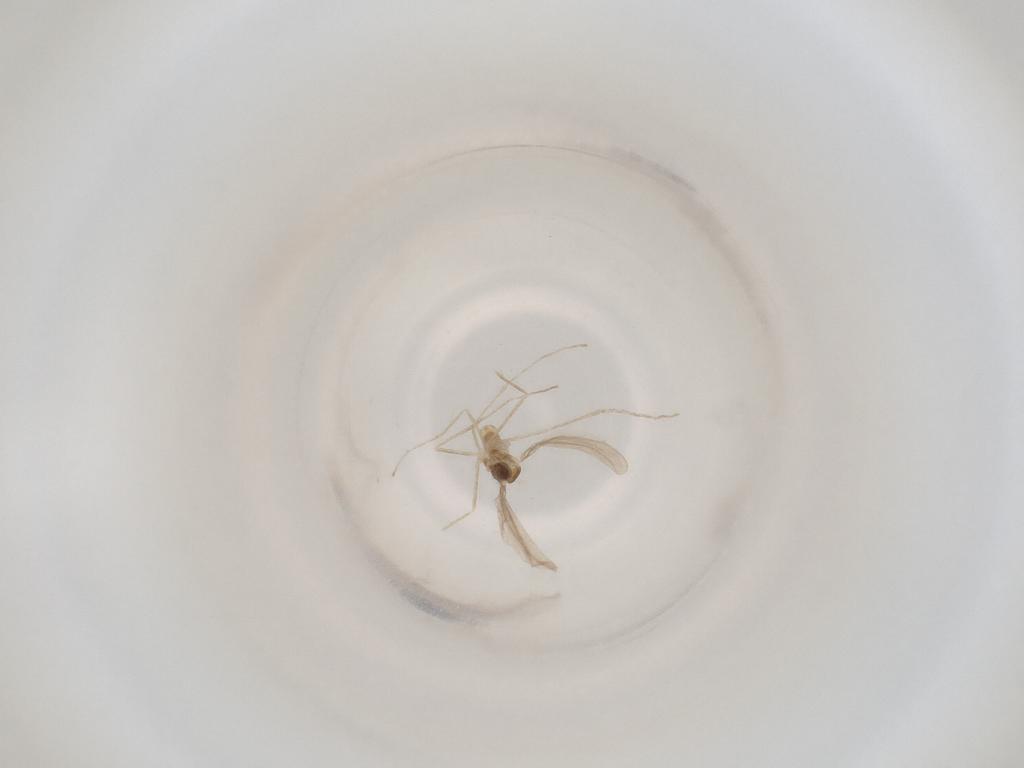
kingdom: Animalia
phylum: Arthropoda
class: Insecta
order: Diptera
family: Cecidomyiidae
